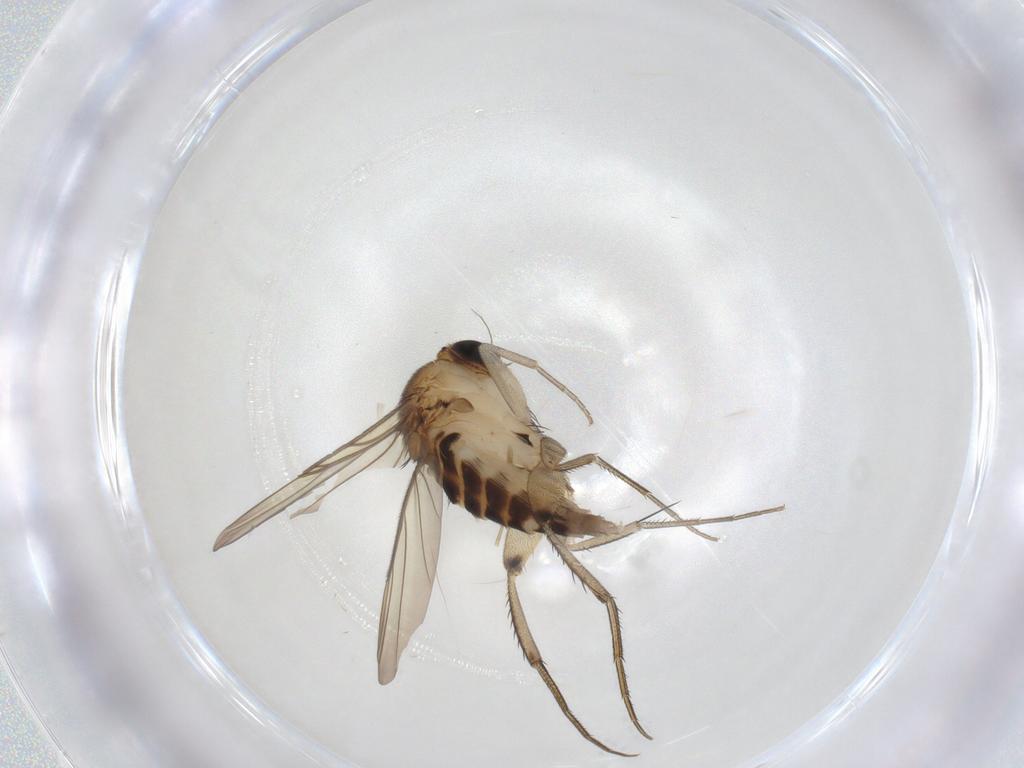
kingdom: Animalia
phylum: Arthropoda
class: Insecta
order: Diptera
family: Phoridae
